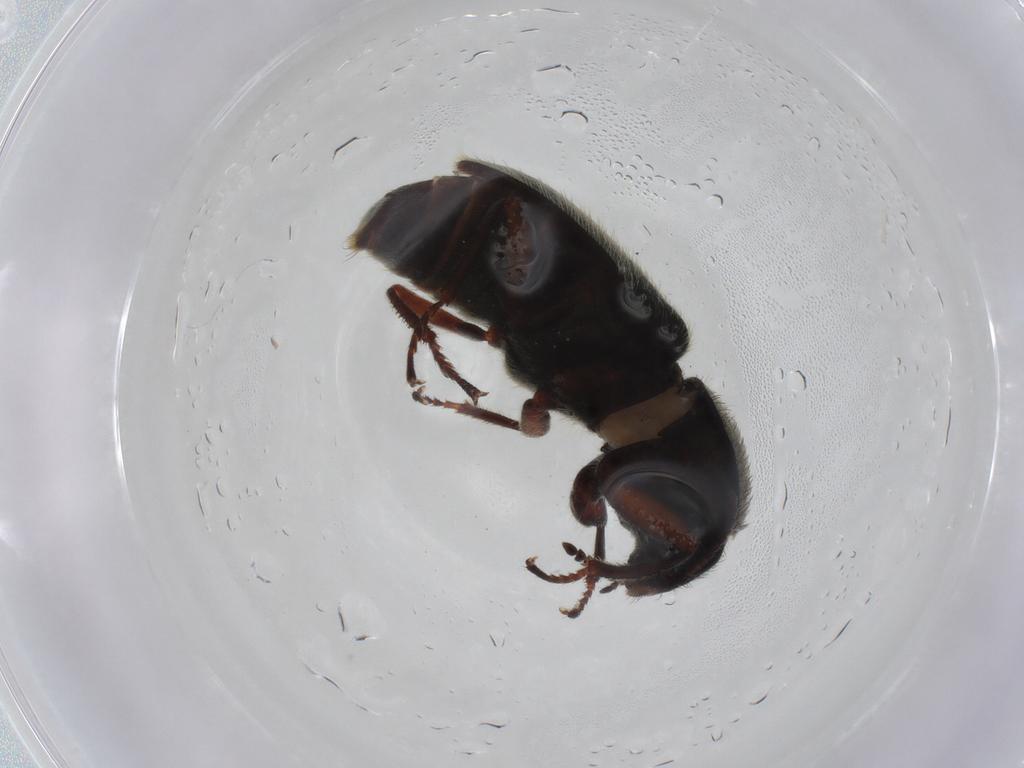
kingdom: Animalia
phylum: Arthropoda
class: Insecta
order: Coleoptera
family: Melyridae
